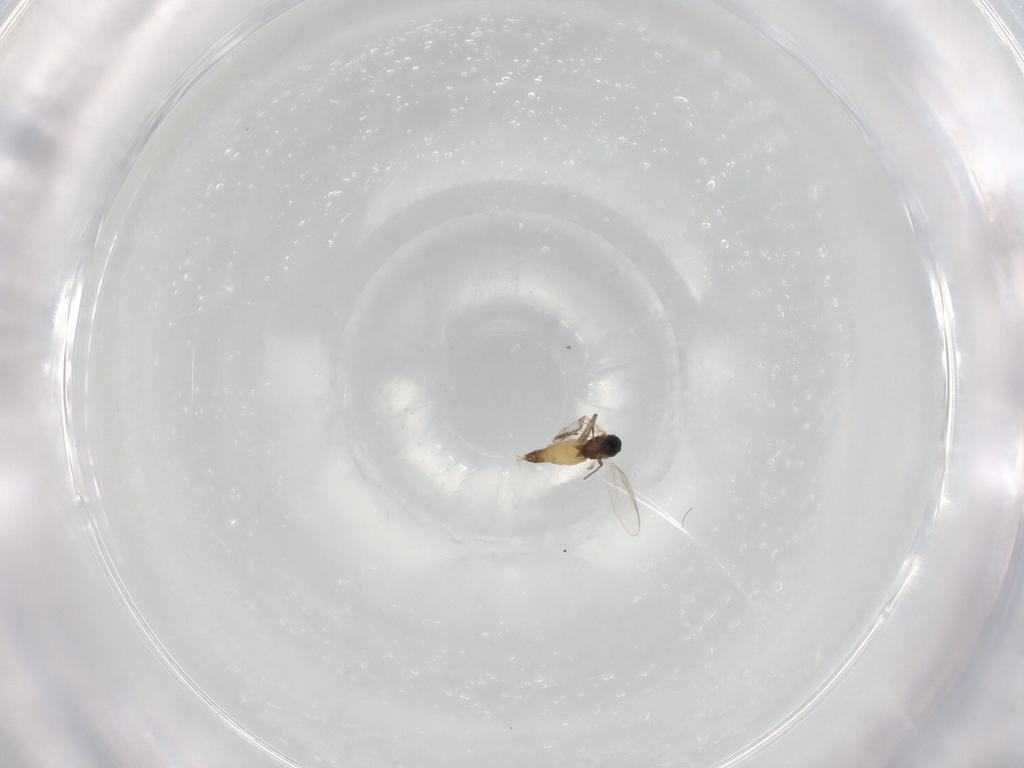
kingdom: Animalia
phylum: Arthropoda
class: Insecta
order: Diptera
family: Chironomidae
